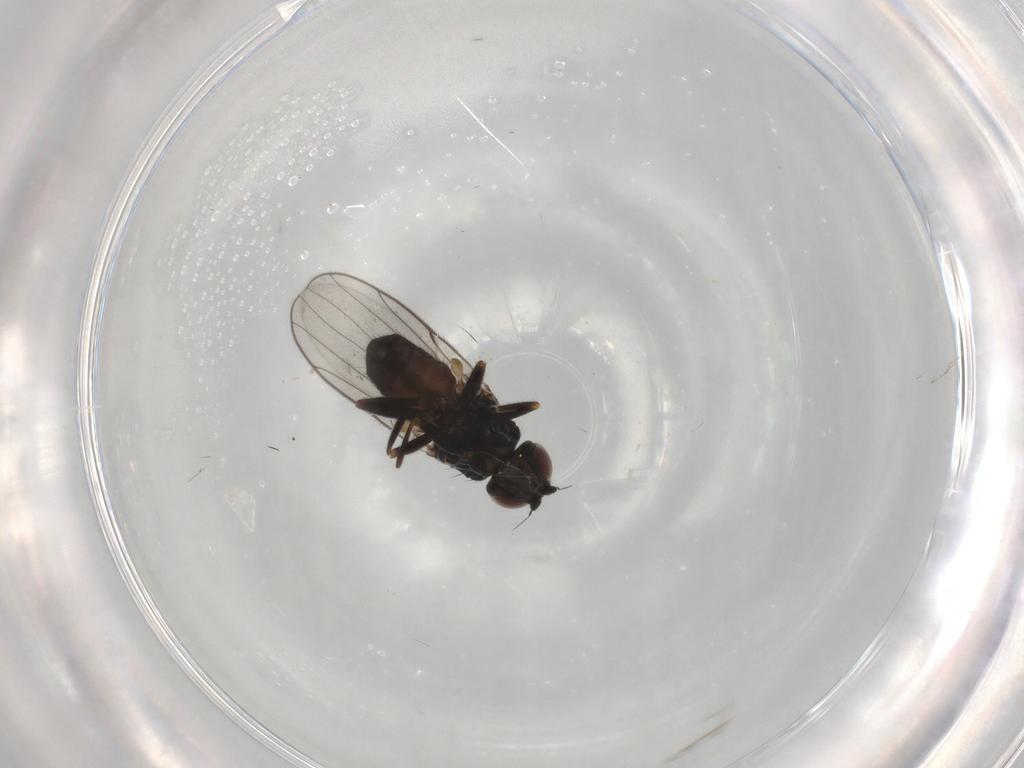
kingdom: Animalia
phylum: Arthropoda
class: Insecta
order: Diptera
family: Chloropidae
